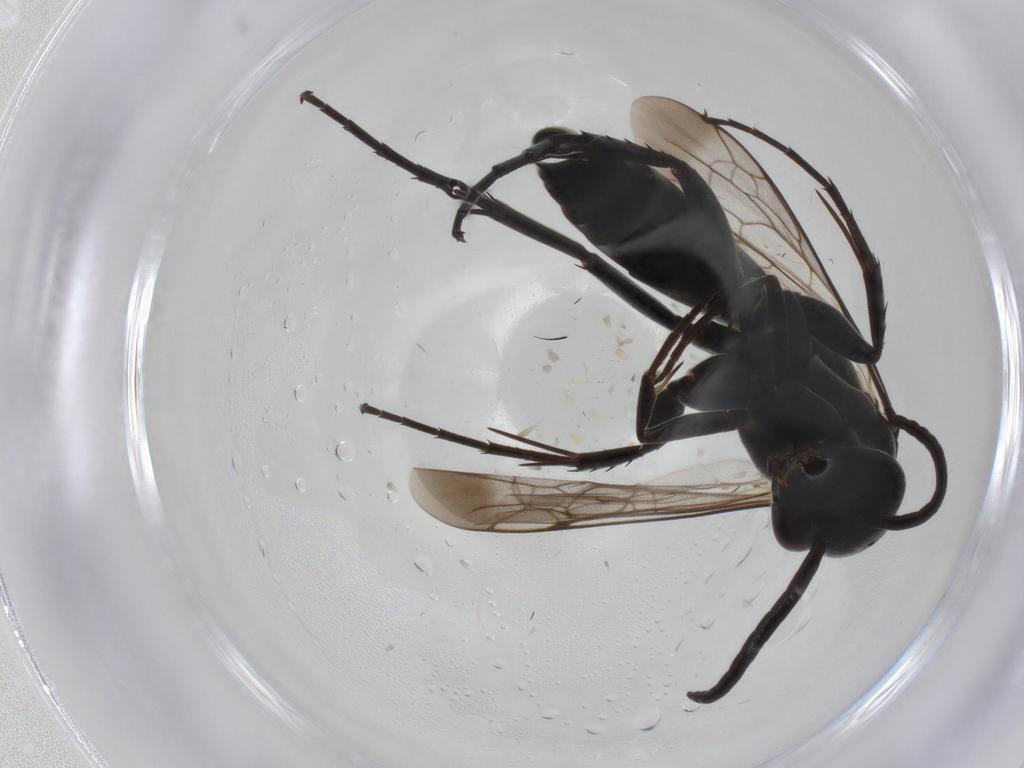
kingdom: Animalia
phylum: Arthropoda
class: Insecta
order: Hymenoptera
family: Pompilidae
